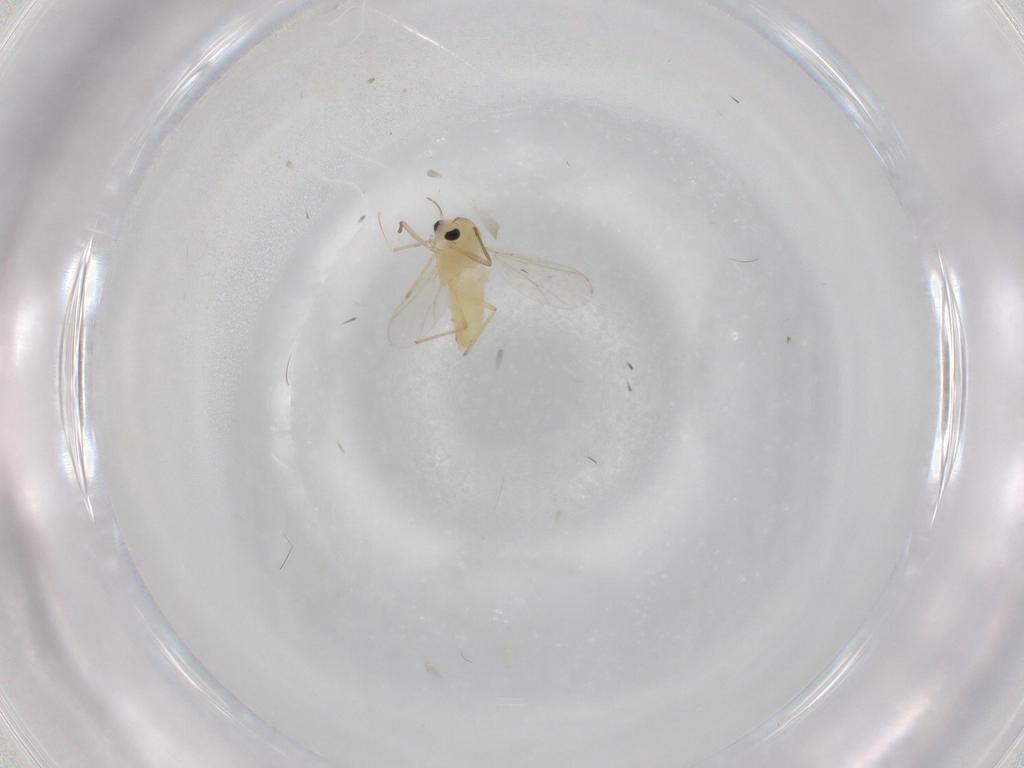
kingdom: Animalia
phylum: Arthropoda
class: Insecta
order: Diptera
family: Chironomidae
